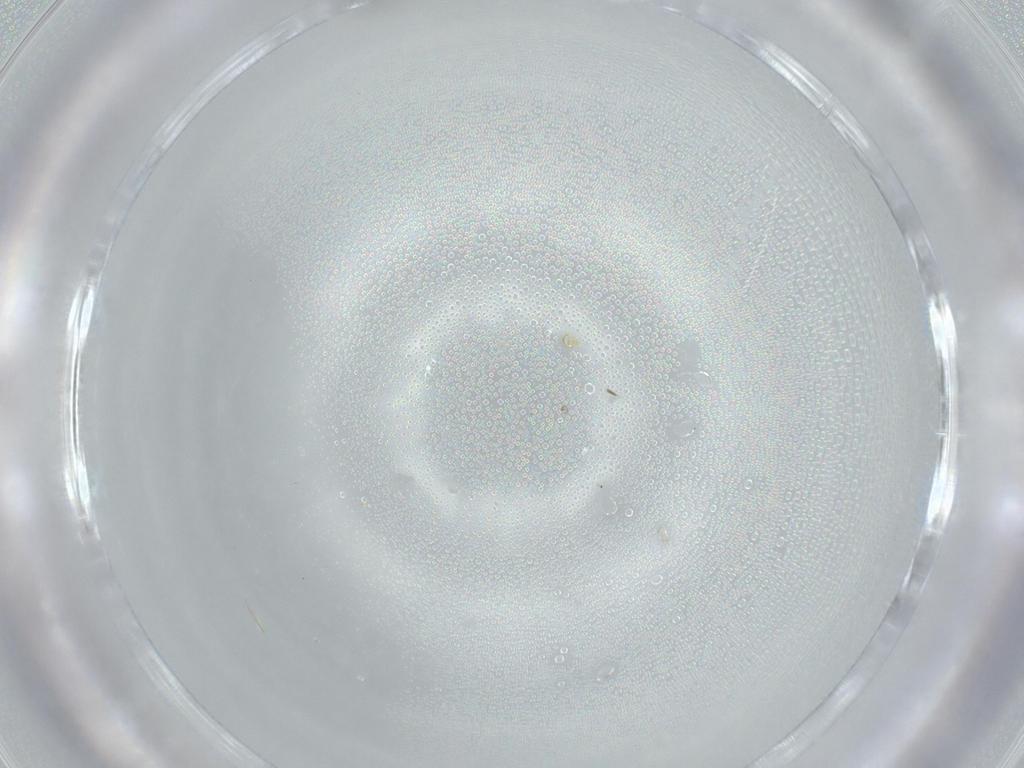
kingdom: Animalia
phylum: Arthropoda
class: Insecta
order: Diptera
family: Sciaridae
